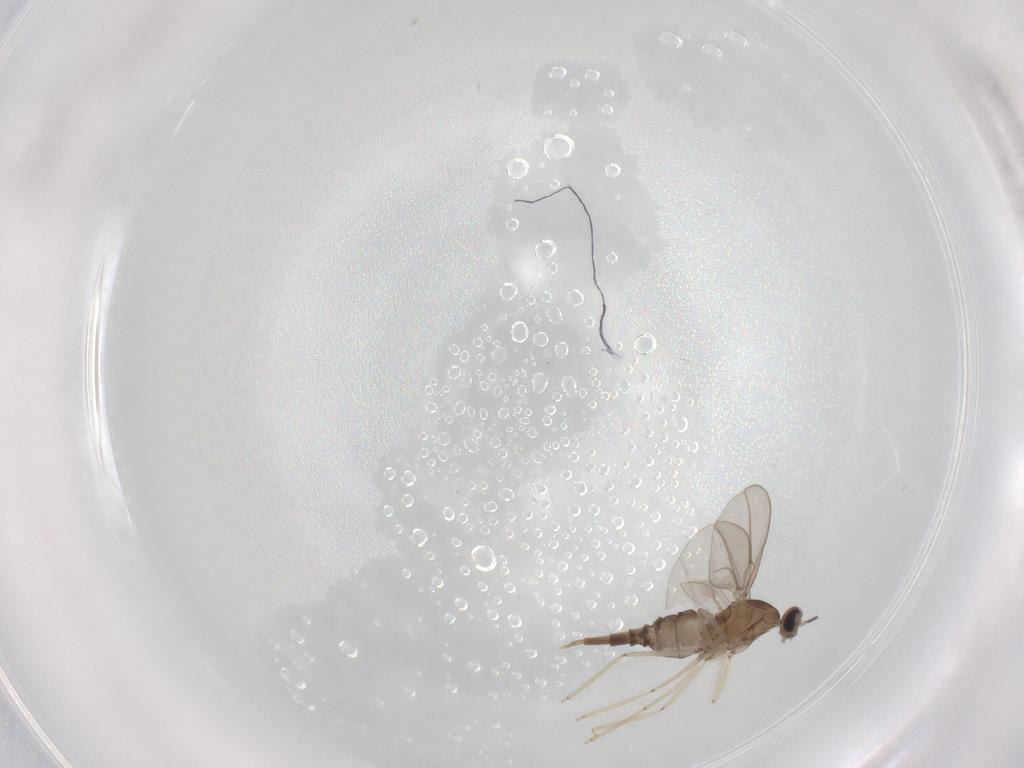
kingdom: Animalia
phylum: Arthropoda
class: Insecta
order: Diptera
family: Cecidomyiidae
